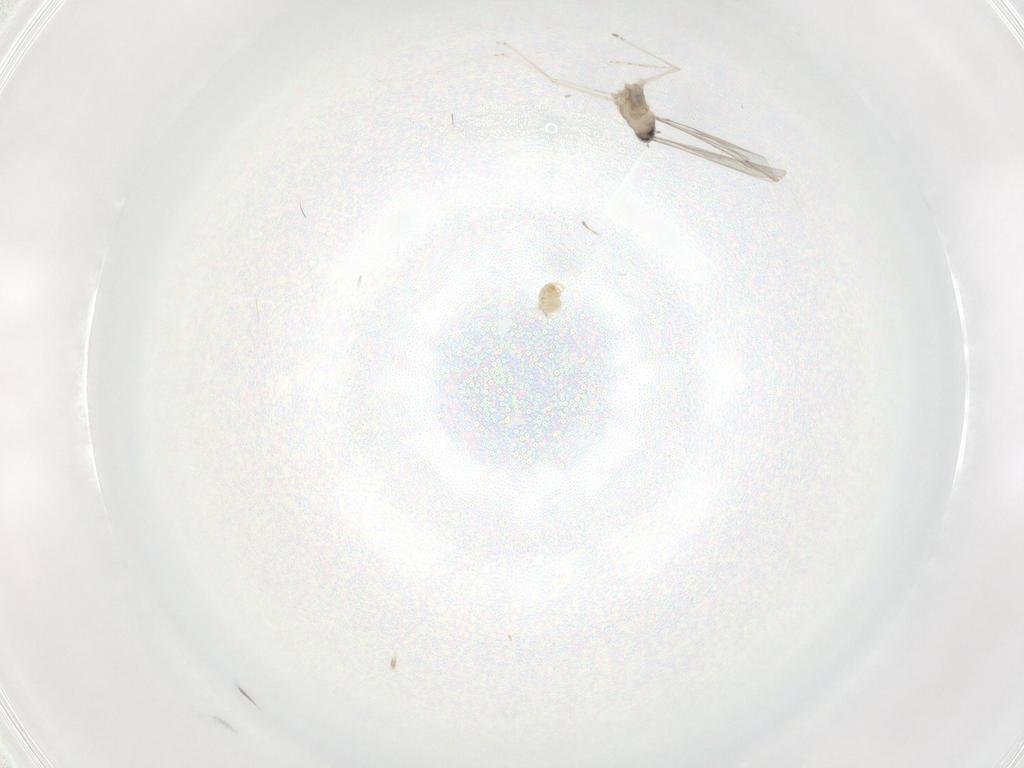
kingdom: Animalia
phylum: Arthropoda
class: Insecta
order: Diptera
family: Cecidomyiidae
